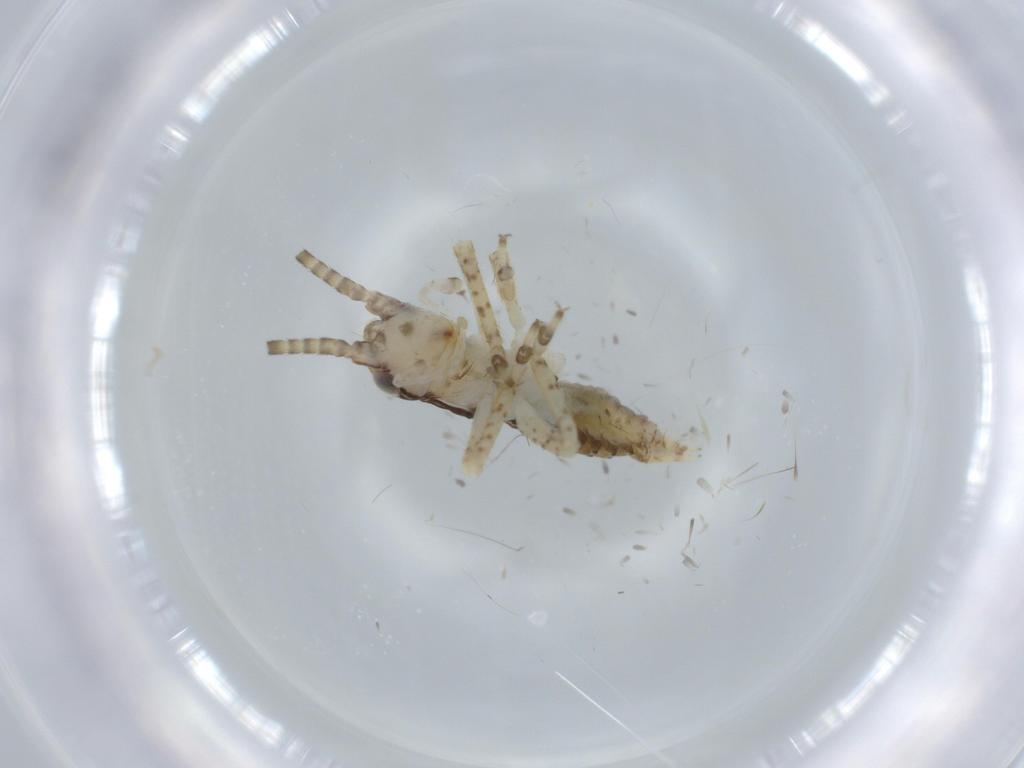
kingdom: Animalia
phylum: Arthropoda
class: Insecta
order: Orthoptera
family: Gryllidae
